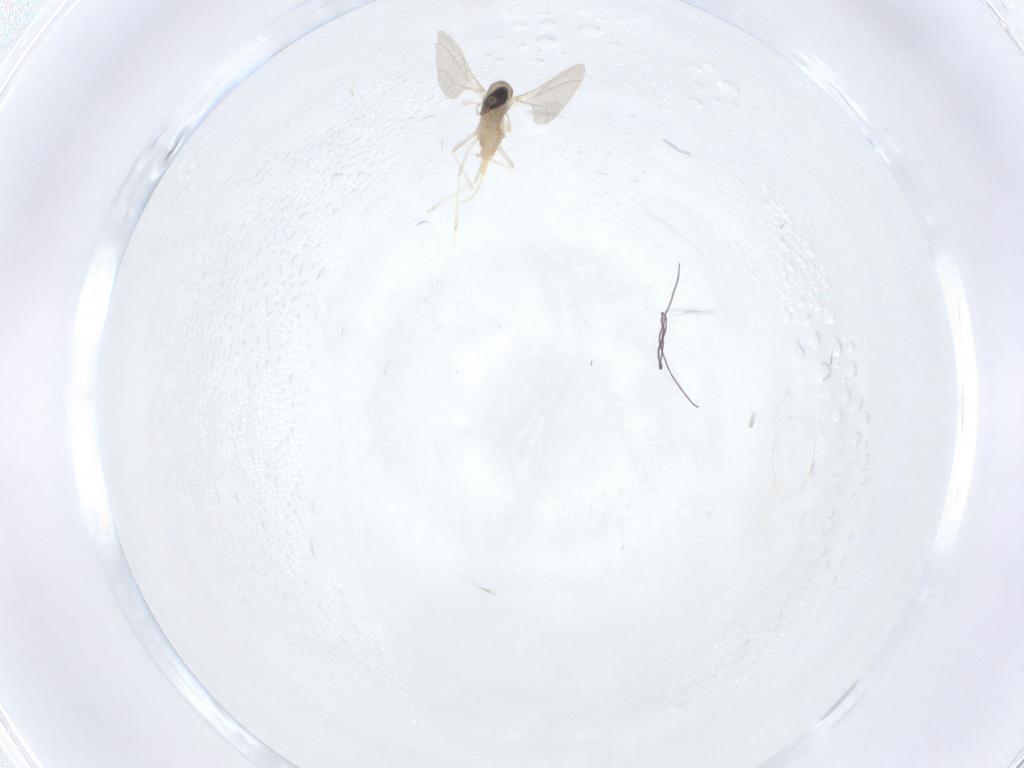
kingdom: Animalia
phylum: Arthropoda
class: Insecta
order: Diptera
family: Cecidomyiidae
